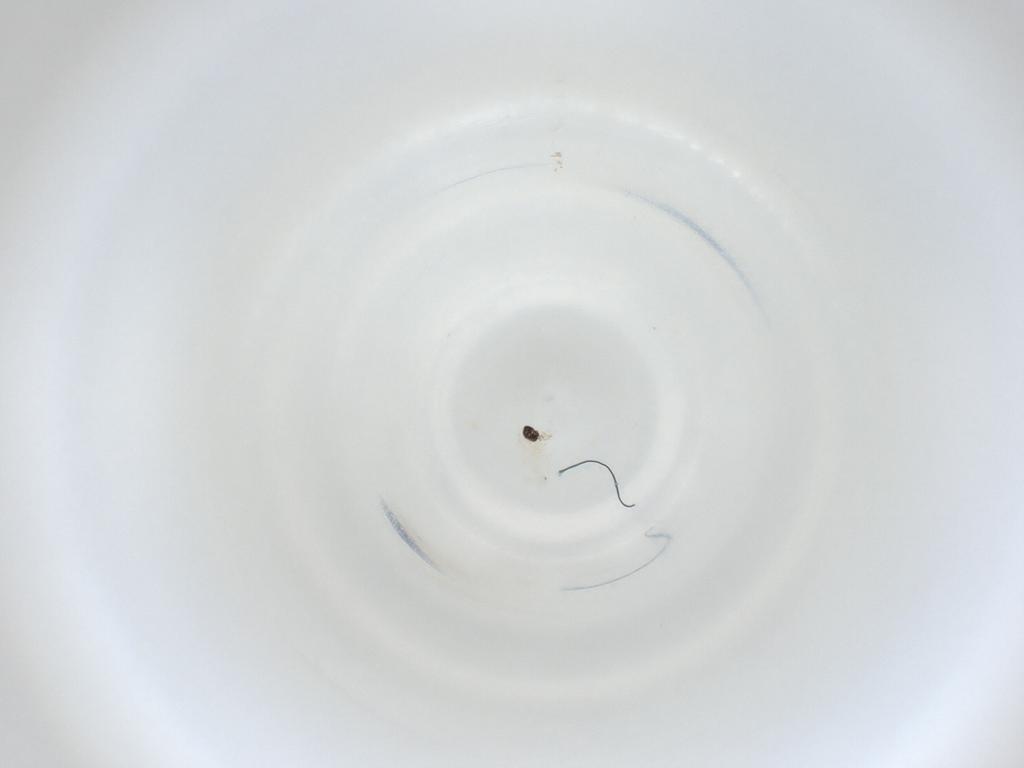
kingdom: Animalia
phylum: Arthropoda
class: Insecta
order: Diptera
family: Cecidomyiidae
